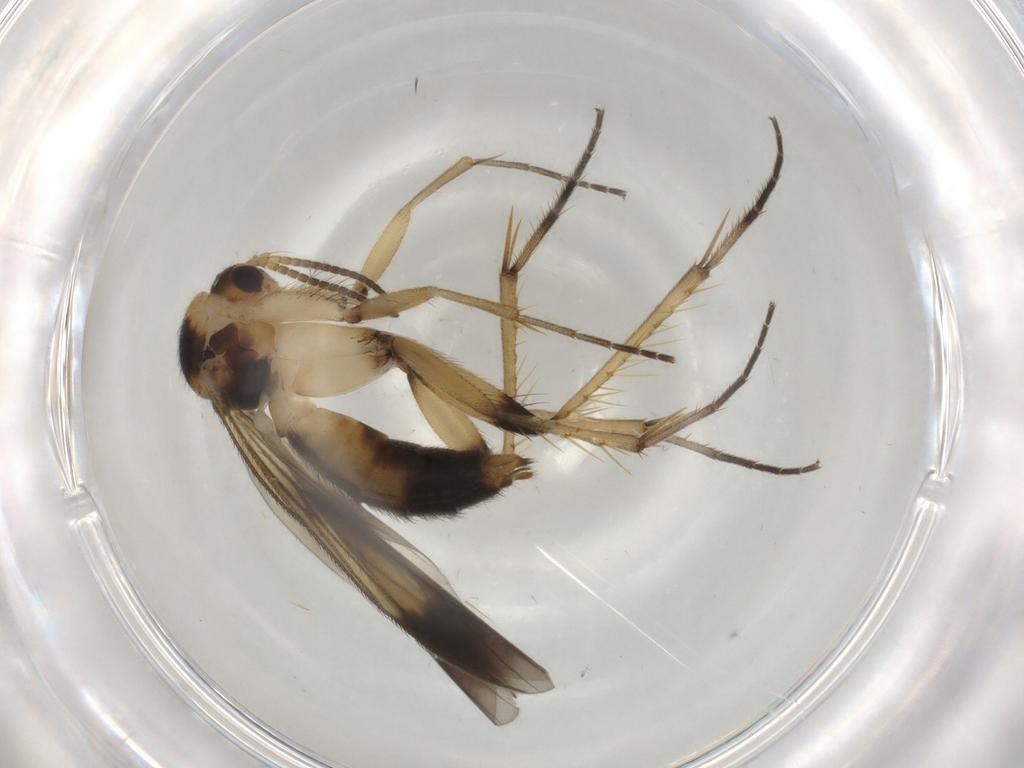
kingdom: Animalia
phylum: Arthropoda
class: Insecta
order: Diptera
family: Mycetophilidae
